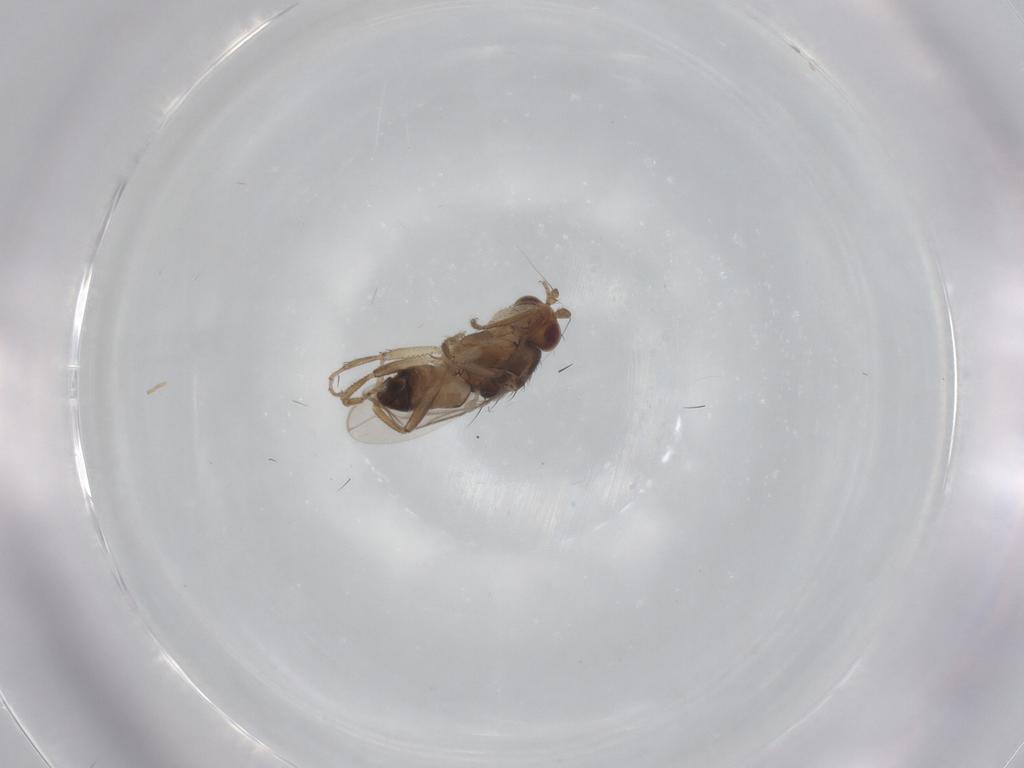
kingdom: Animalia
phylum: Arthropoda
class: Insecta
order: Diptera
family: Sphaeroceridae
